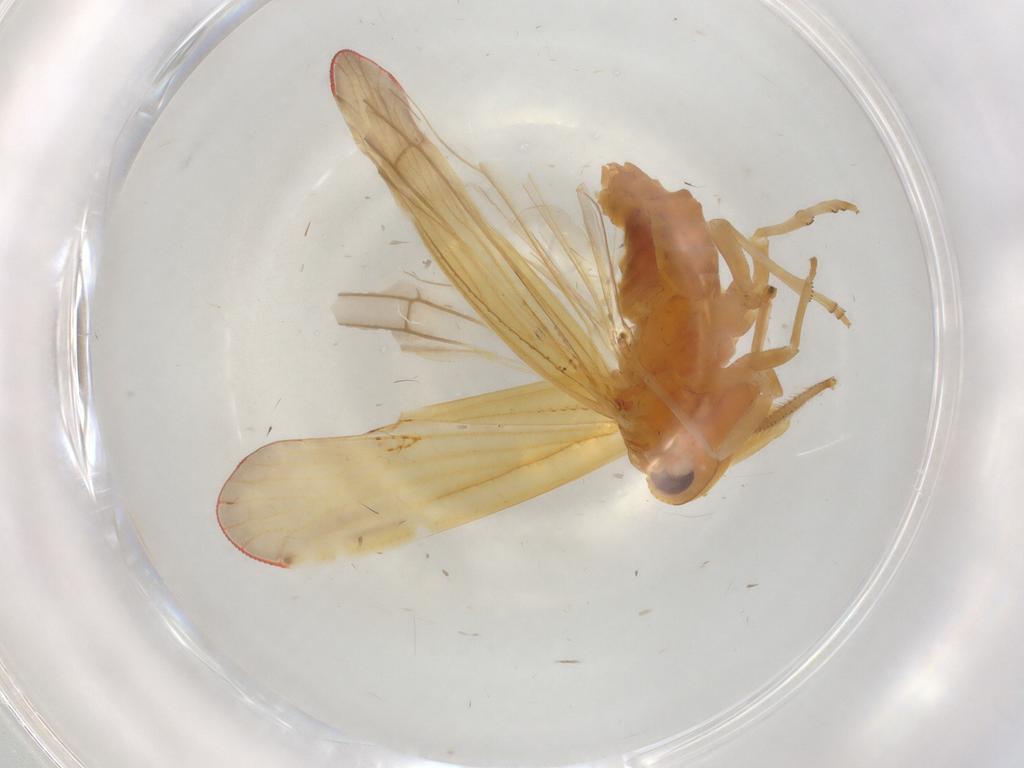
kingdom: Animalia
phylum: Arthropoda
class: Insecta
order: Hemiptera
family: Derbidae
